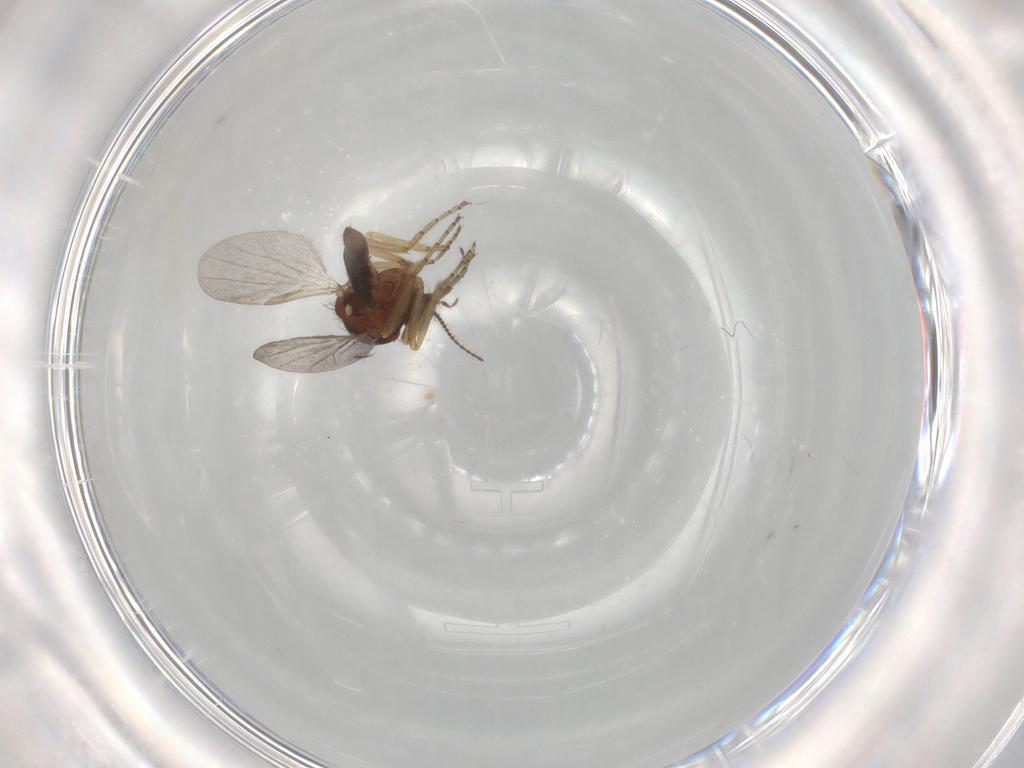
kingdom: Animalia
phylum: Arthropoda
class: Insecta
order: Diptera
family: Ceratopogonidae
